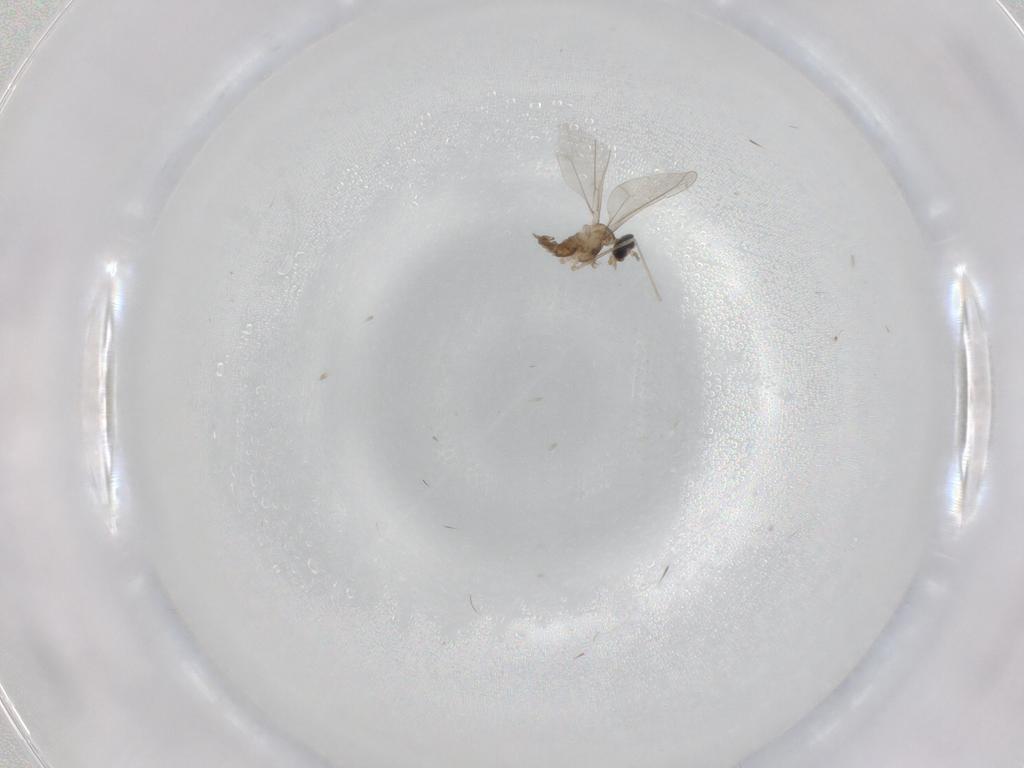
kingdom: Animalia
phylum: Arthropoda
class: Insecta
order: Diptera
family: Cecidomyiidae
